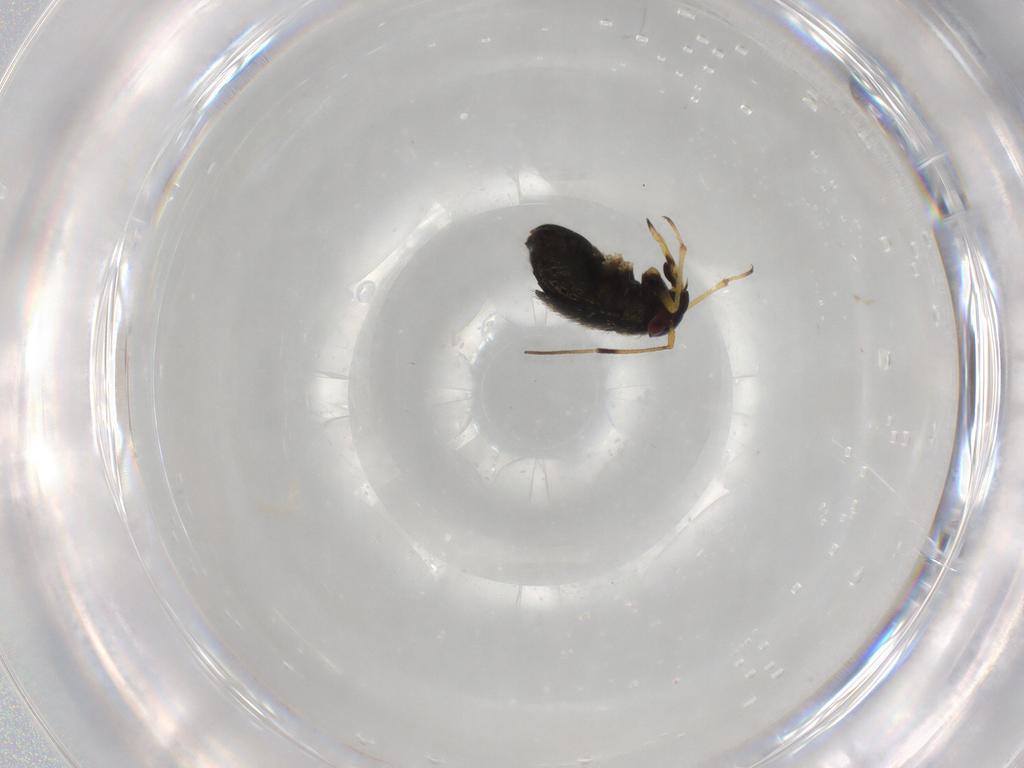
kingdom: Animalia
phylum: Arthropoda
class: Insecta
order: Hemiptera
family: Miridae
